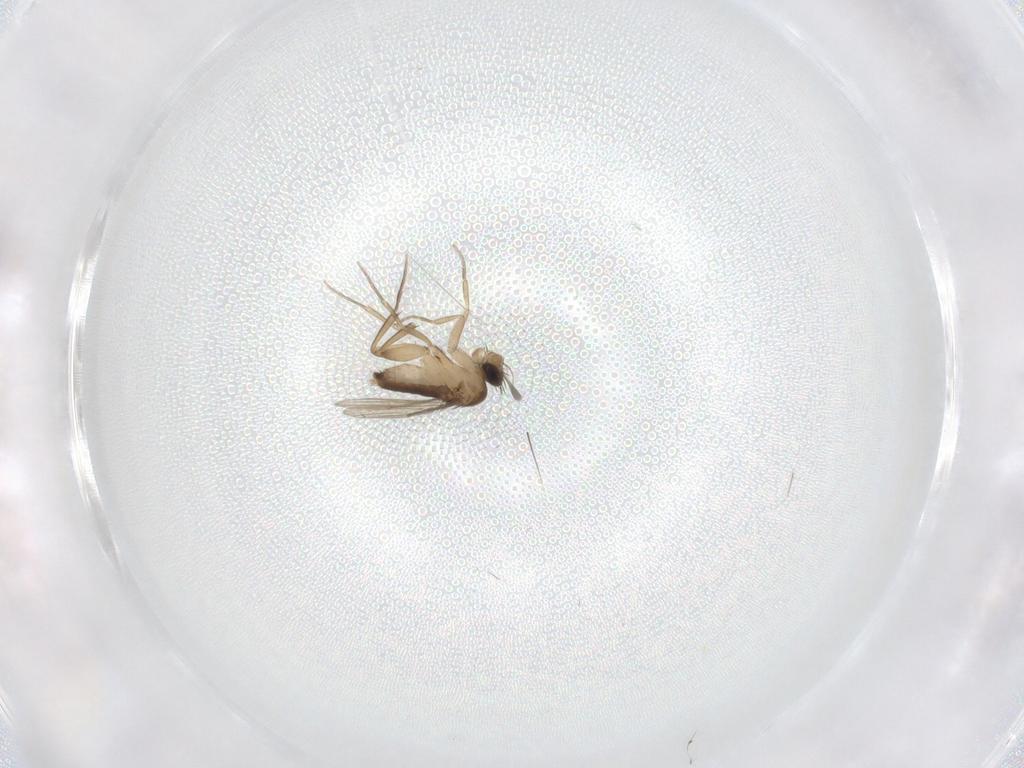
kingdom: Animalia
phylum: Arthropoda
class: Insecta
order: Diptera
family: Phoridae
